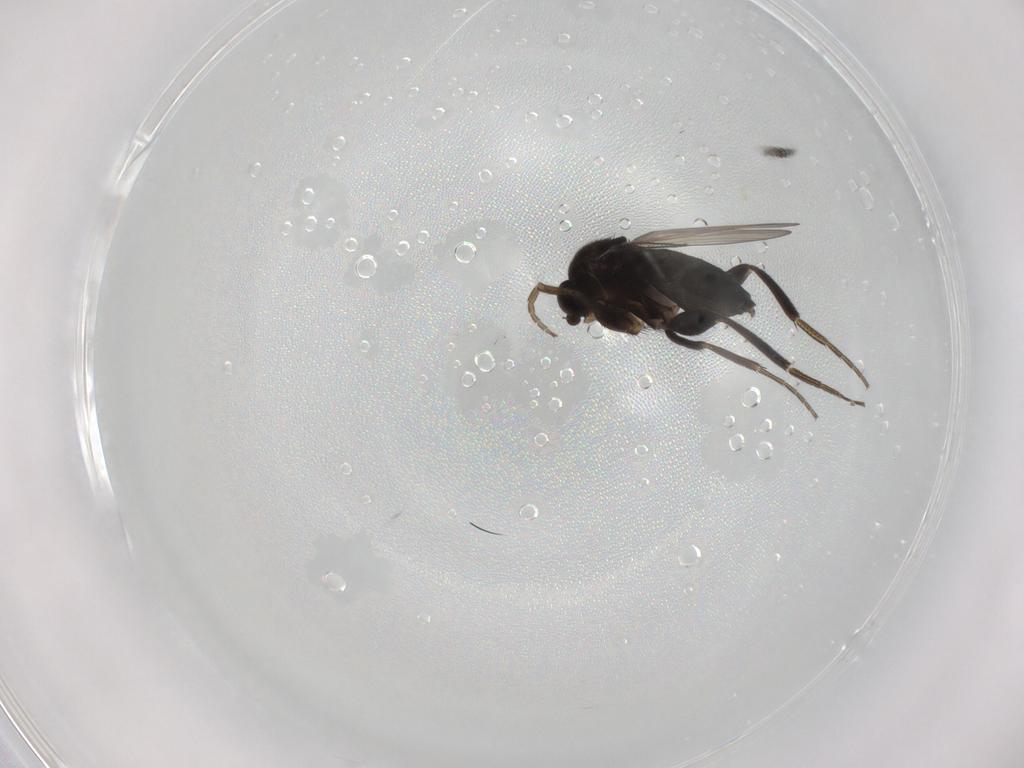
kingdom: Animalia
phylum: Arthropoda
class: Insecta
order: Diptera
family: Phoridae
